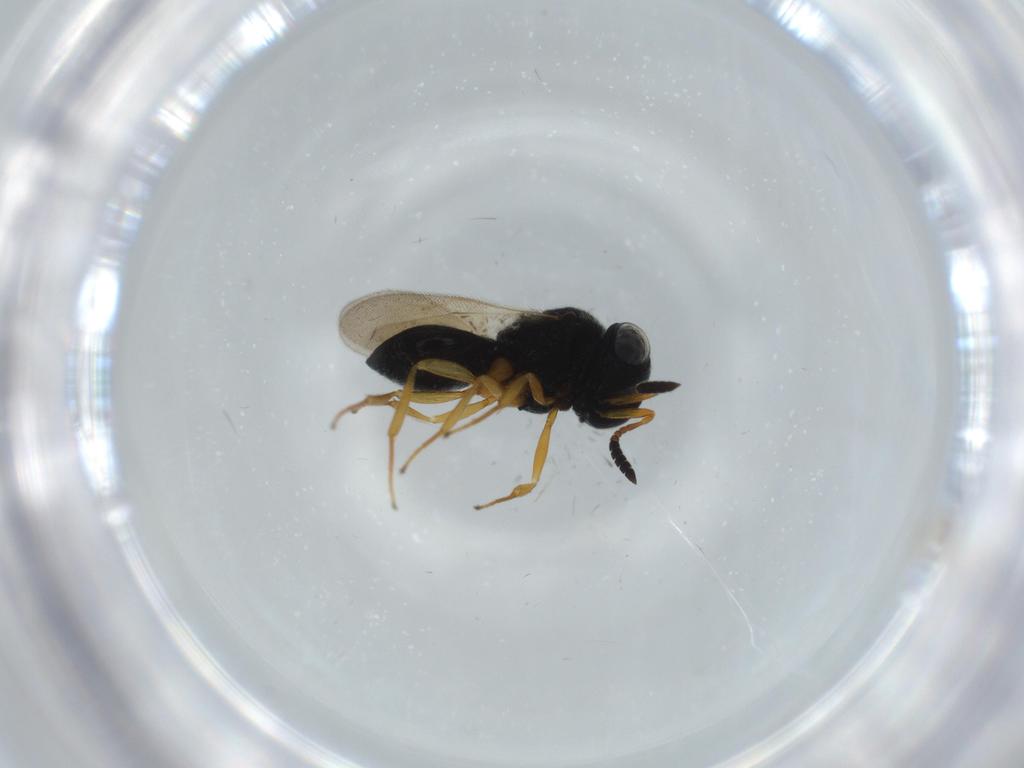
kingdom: Animalia
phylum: Arthropoda
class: Insecta
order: Hymenoptera
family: Scelionidae
